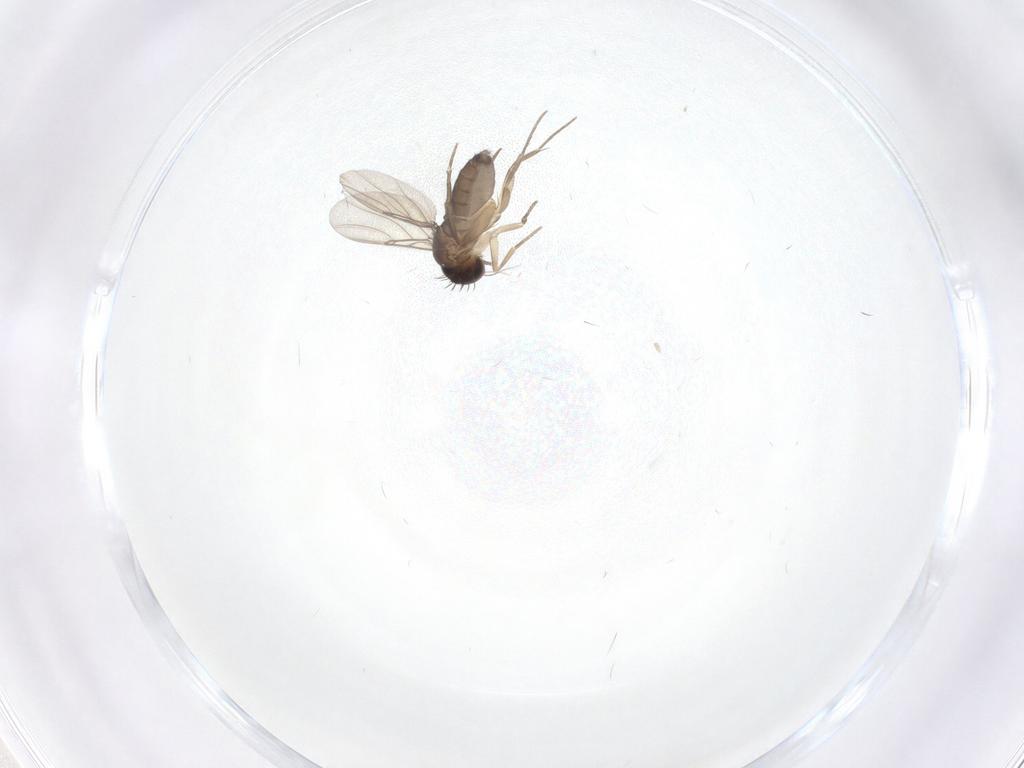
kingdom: Animalia
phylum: Arthropoda
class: Insecta
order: Diptera
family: Phoridae
